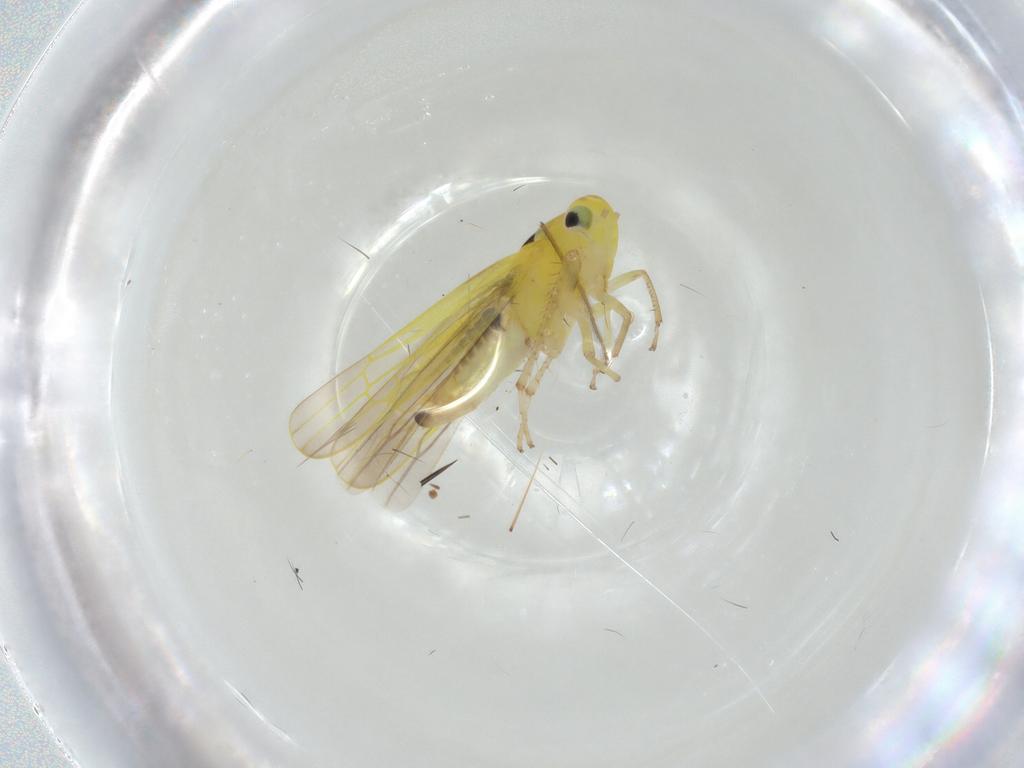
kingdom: Animalia
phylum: Arthropoda
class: Insecta
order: Hemiptera
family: Cicadellidae
